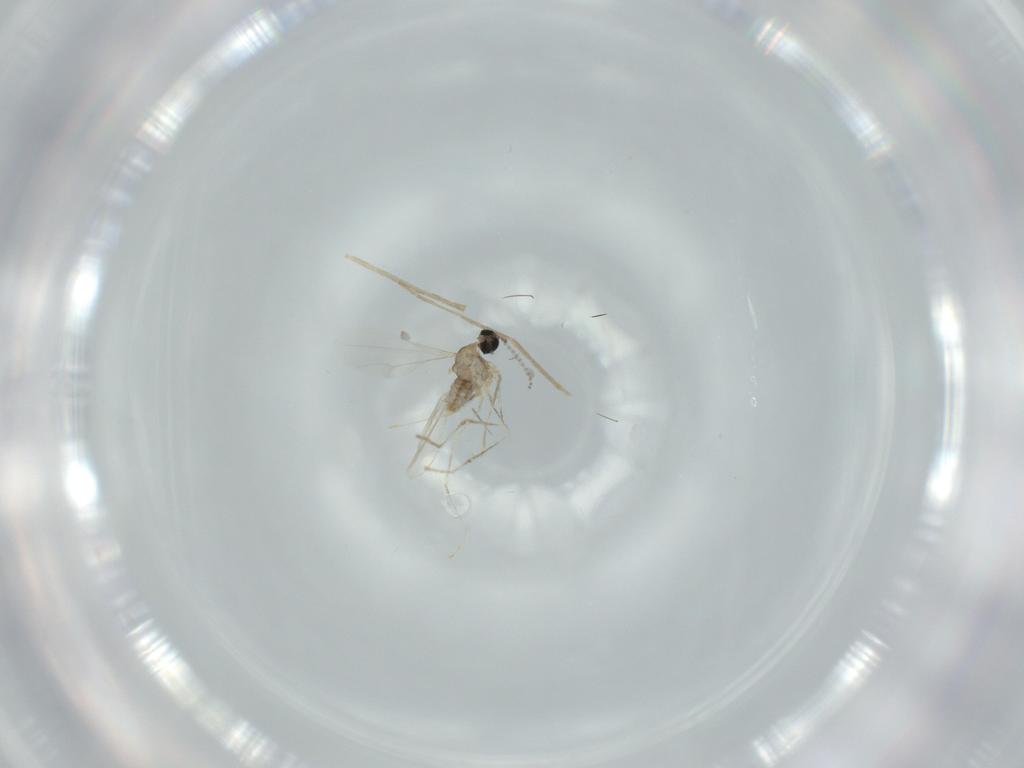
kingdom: Animalia
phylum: Arthropoda
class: Insecta
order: Diptera
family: Cecidomyiidae
